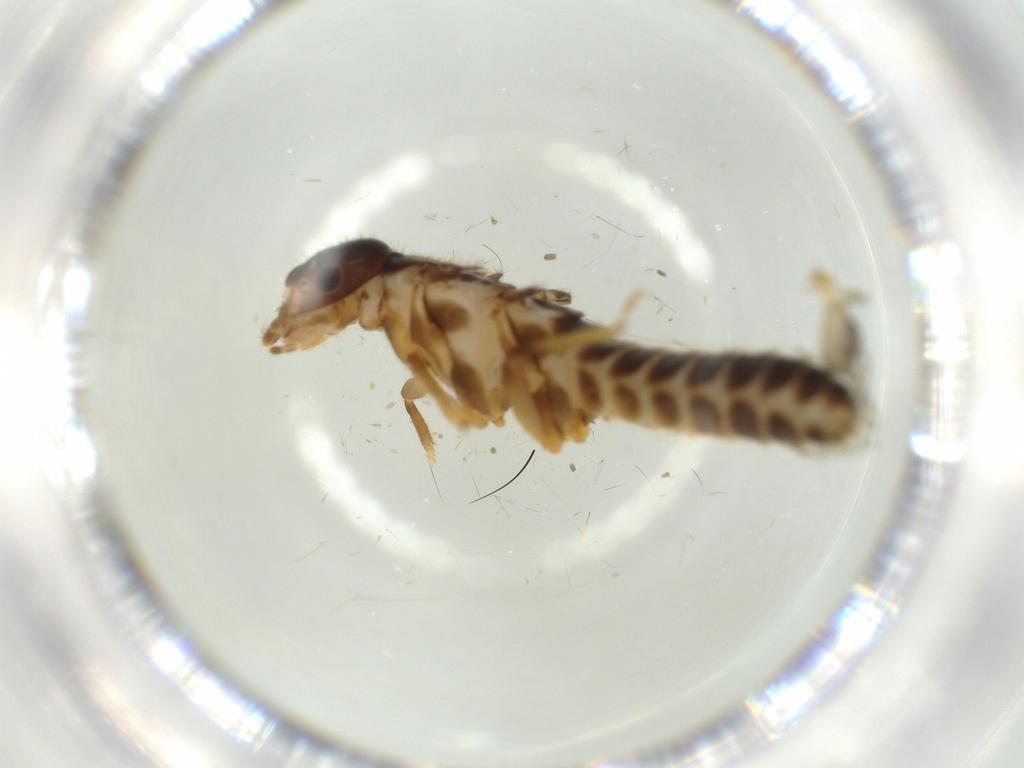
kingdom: Animalia
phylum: Arthropoda
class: Insecta
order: Blattodea
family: Termitidae
